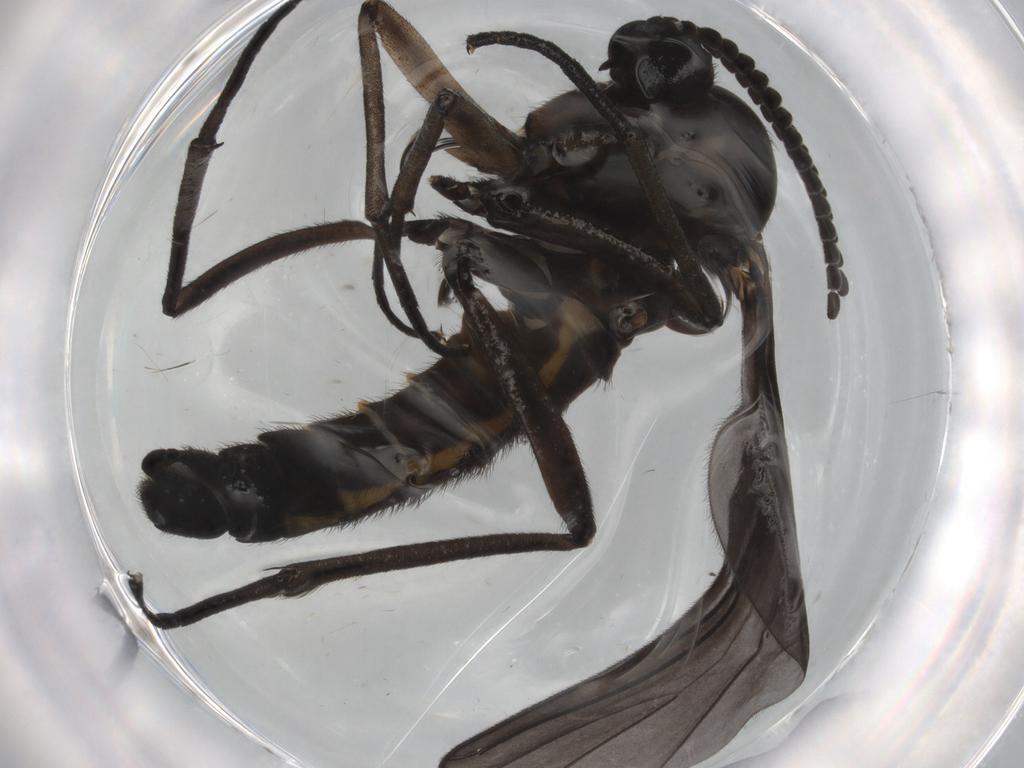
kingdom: Animalia
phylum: Arthropoda
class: Insecta
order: Diptera
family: Sciaridae
